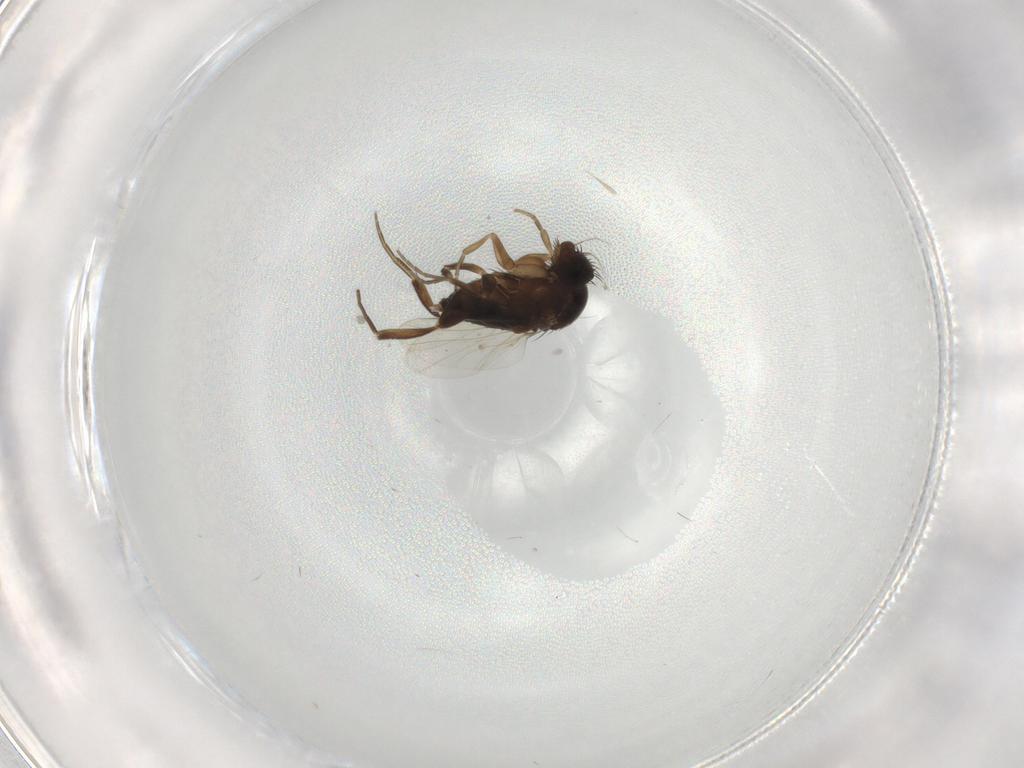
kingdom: Animalia
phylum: Arthropoda
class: Insecta
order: Diptera
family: Phoridae
